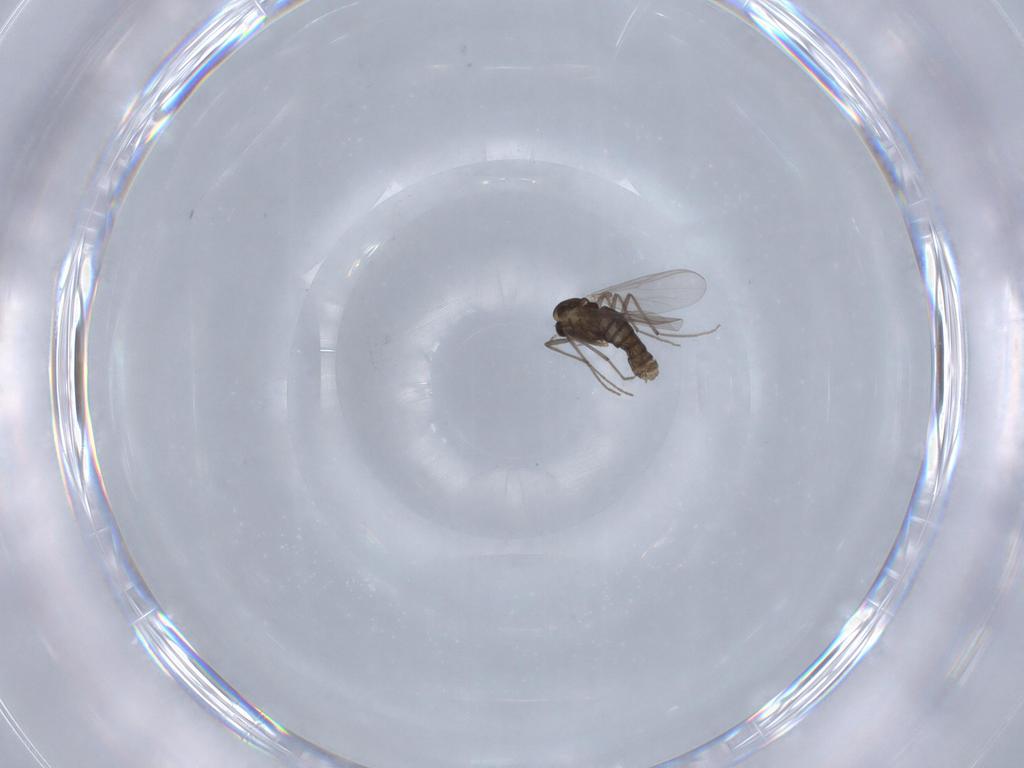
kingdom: Animalia
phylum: Arthropoda
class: Insecta
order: Diptera
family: Chironomidae
